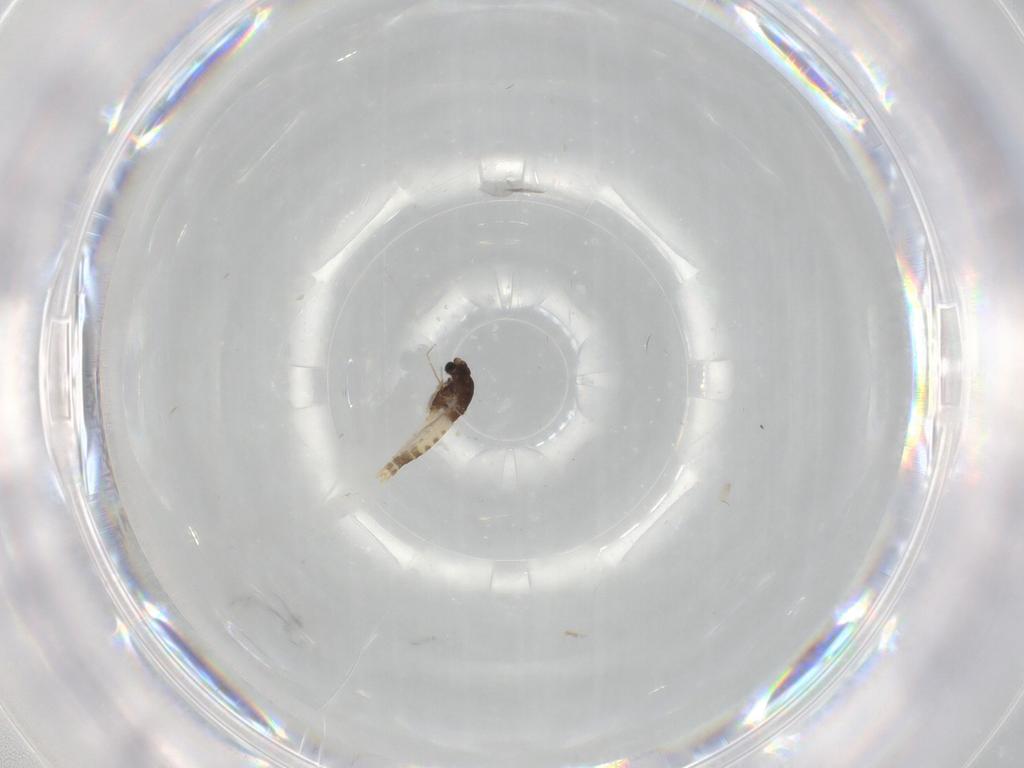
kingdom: Animalia
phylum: Arthropoda
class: Insecta
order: Diptera
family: Chironomidae
